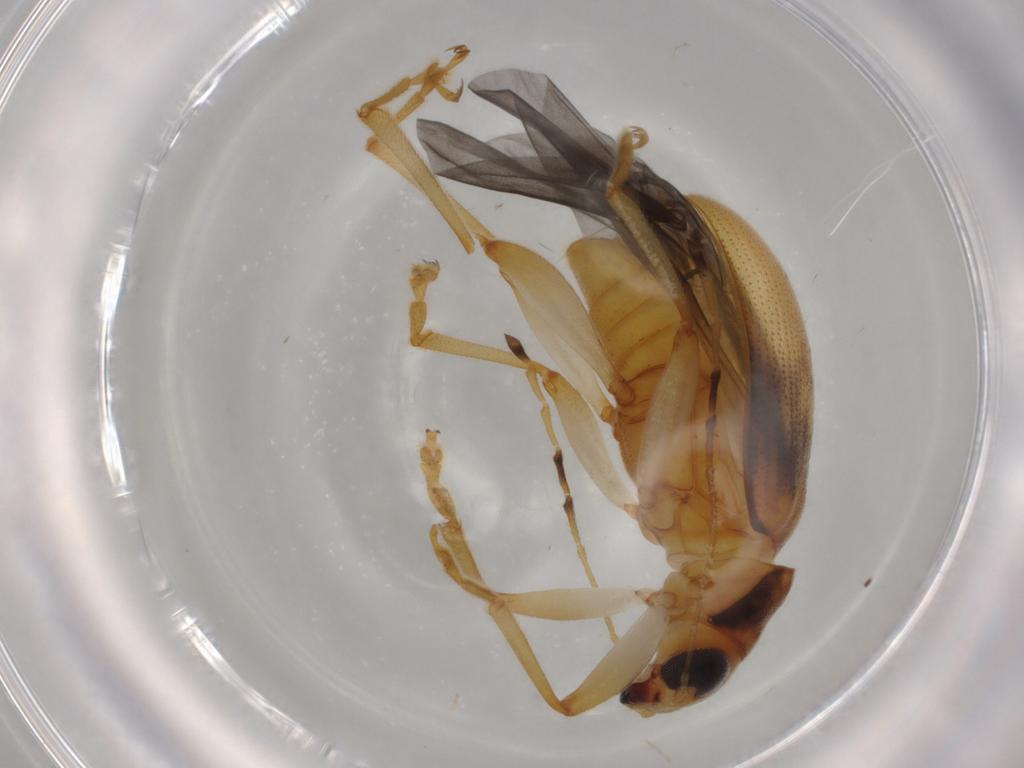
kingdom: Animalia
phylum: Arthropoda
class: Insecta
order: Coleoptera
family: Chrysomelidae
